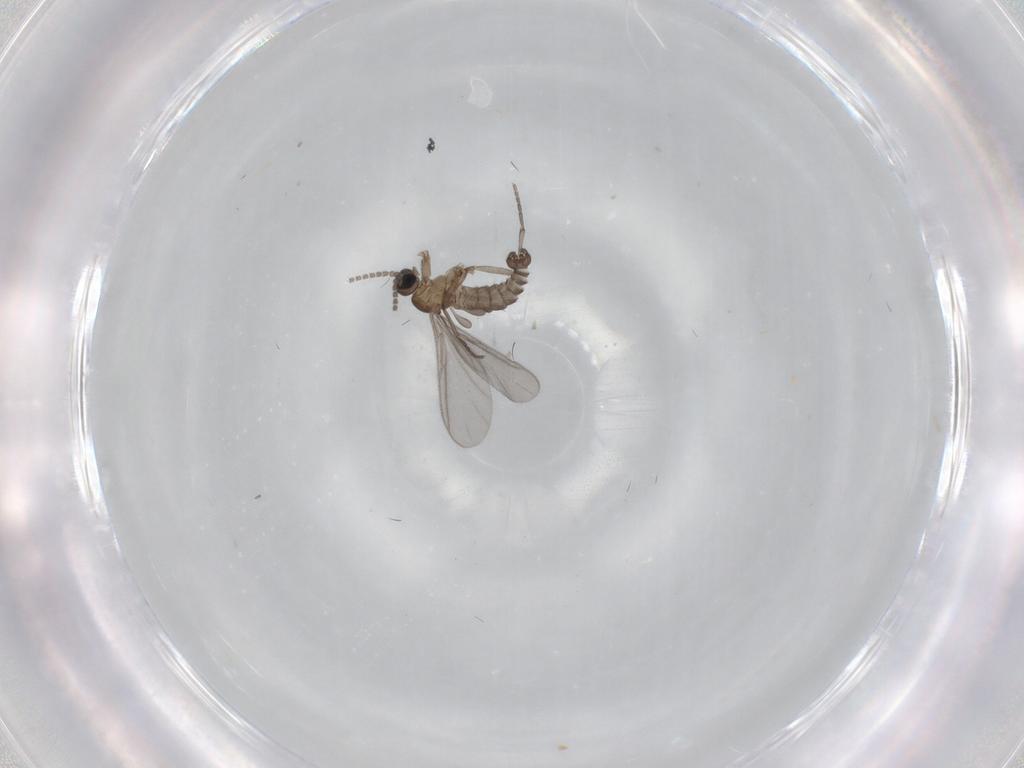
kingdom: Animalia
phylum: Arthropoda
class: Insecta
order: Diptera
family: Sciaridae
